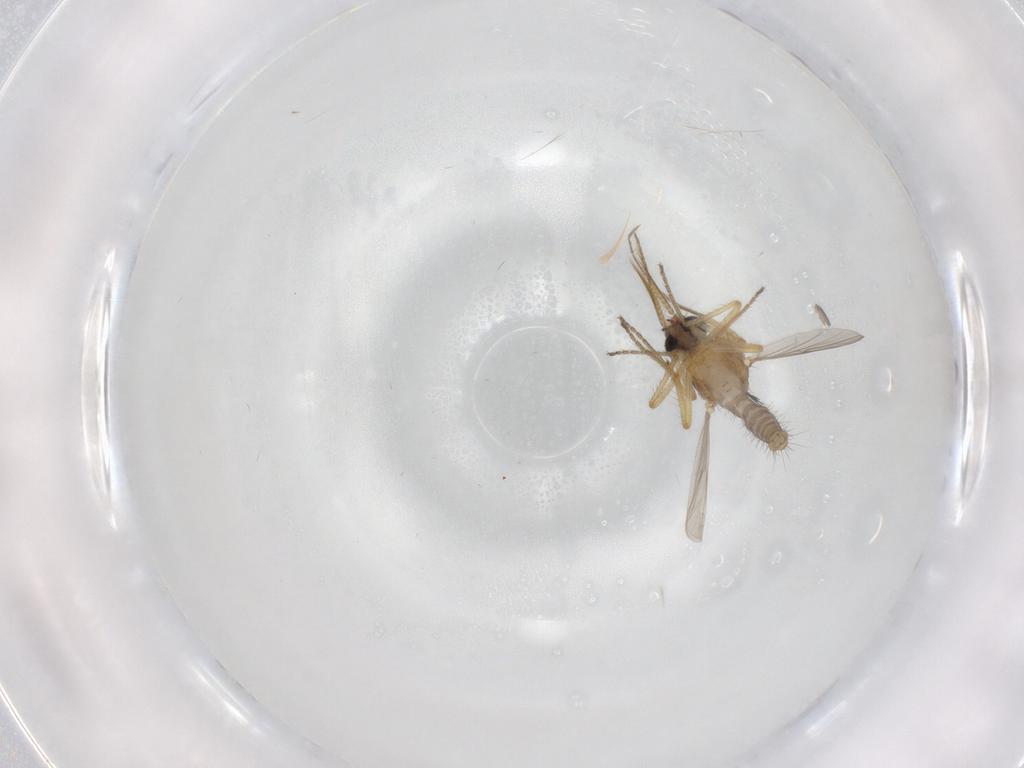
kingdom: Animalia
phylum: Arthropoda
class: Insecta
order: Diptera
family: Ceratopogonidae
